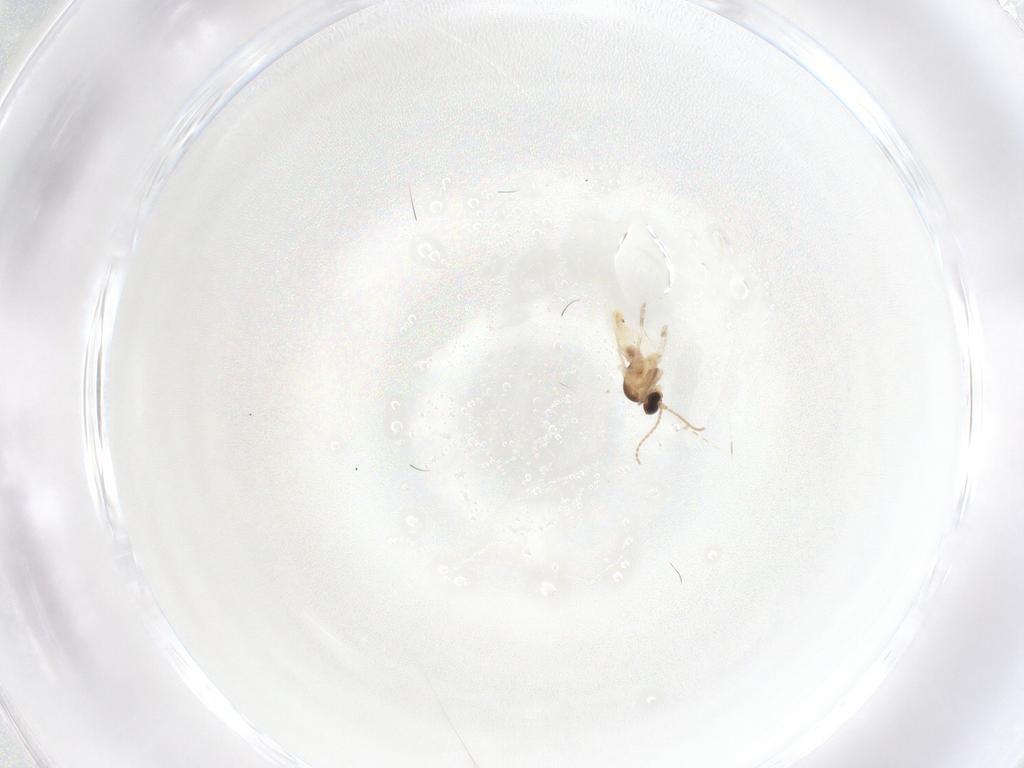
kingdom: Animalia
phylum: Arthropoda
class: Insecta
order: Diptera
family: Cecidomyiidae
